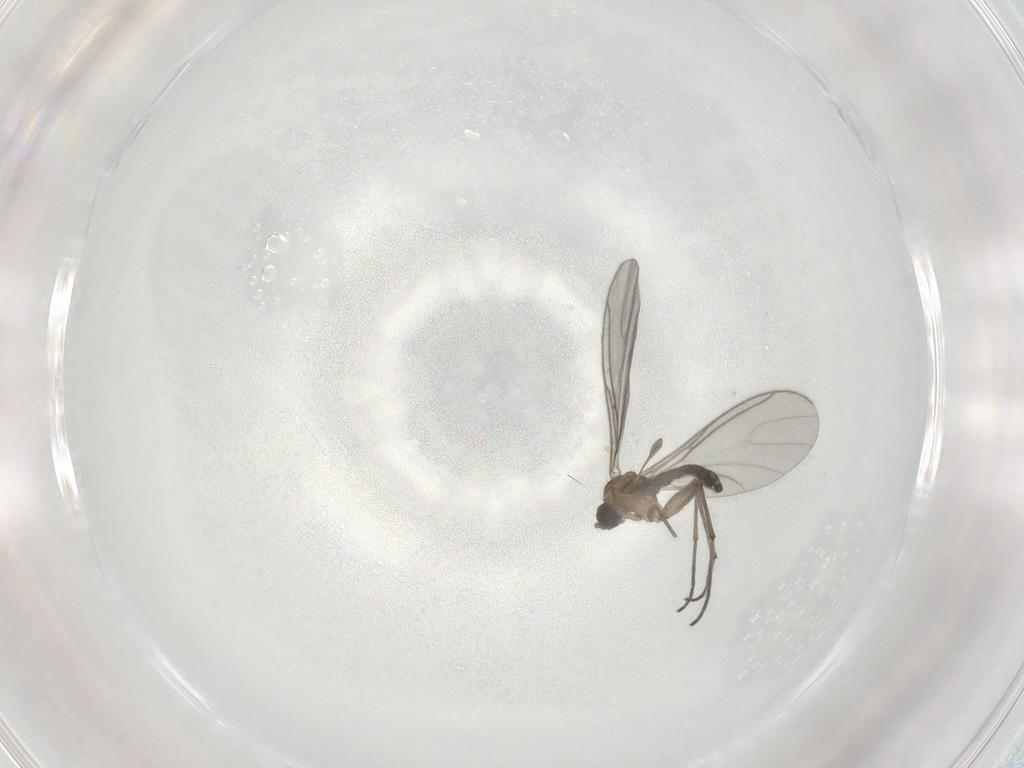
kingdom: Animalia
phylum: Arthropoda
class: Insecta
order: Diptera
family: Sciaridae
